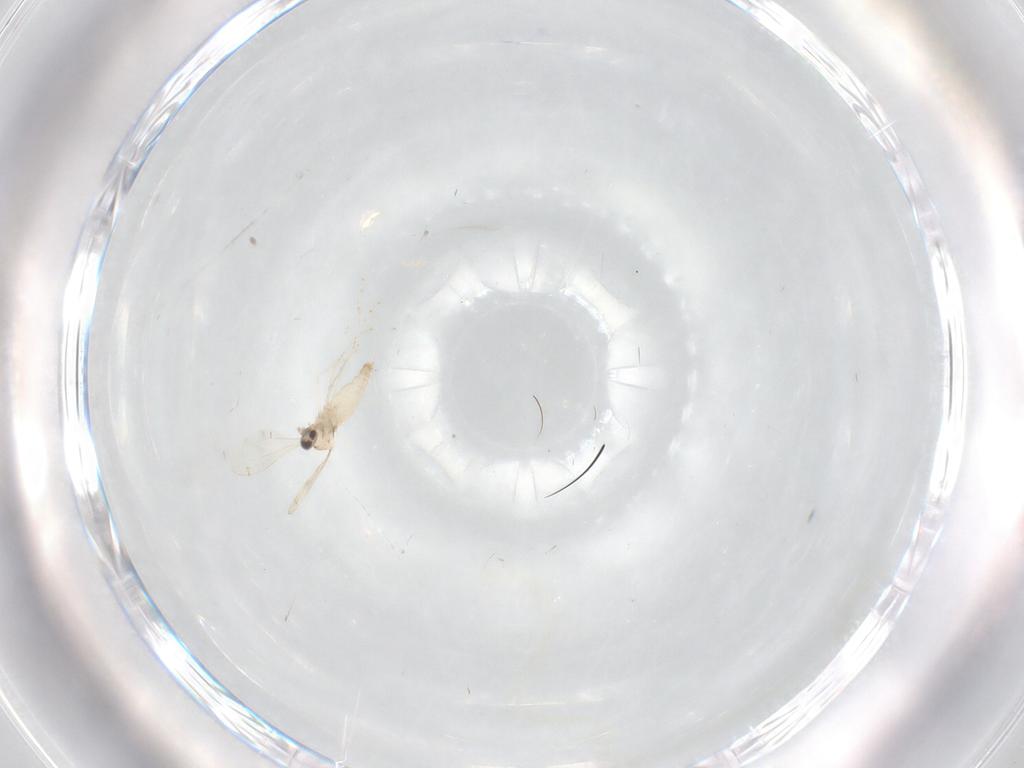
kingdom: Animalia
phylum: Arthropoda
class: Insecta
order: Diptera
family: Cecidomyiidae
